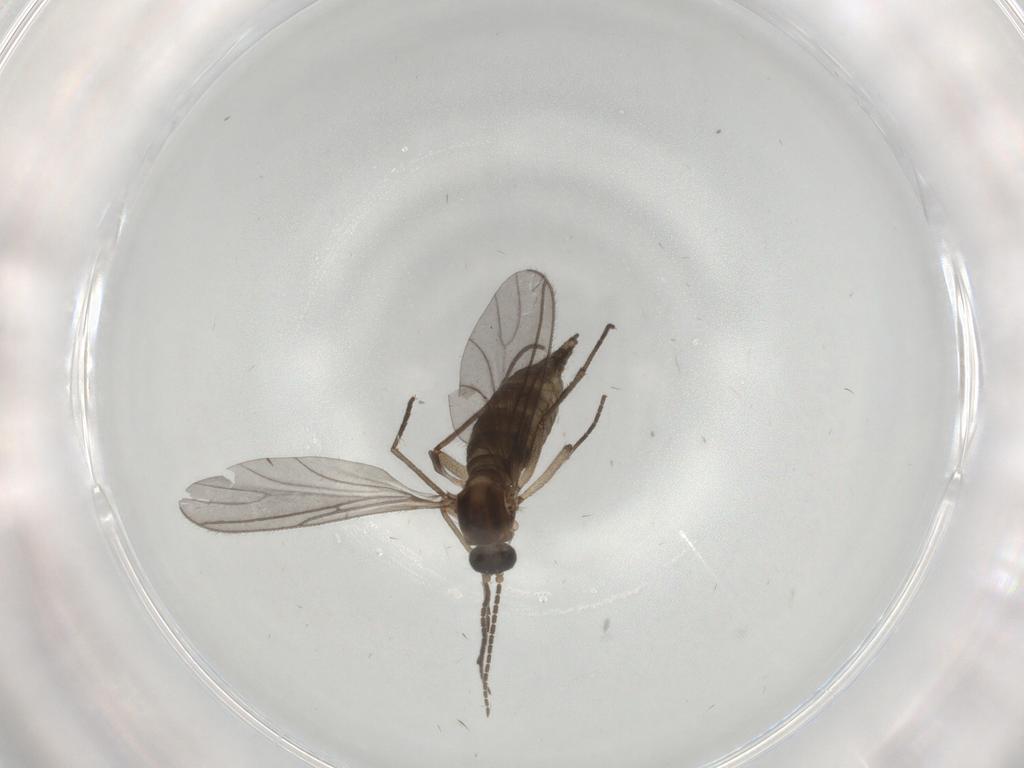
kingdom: Animalia
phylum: Arthropoda
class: Insecta
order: Diptera
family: Chironomidae
